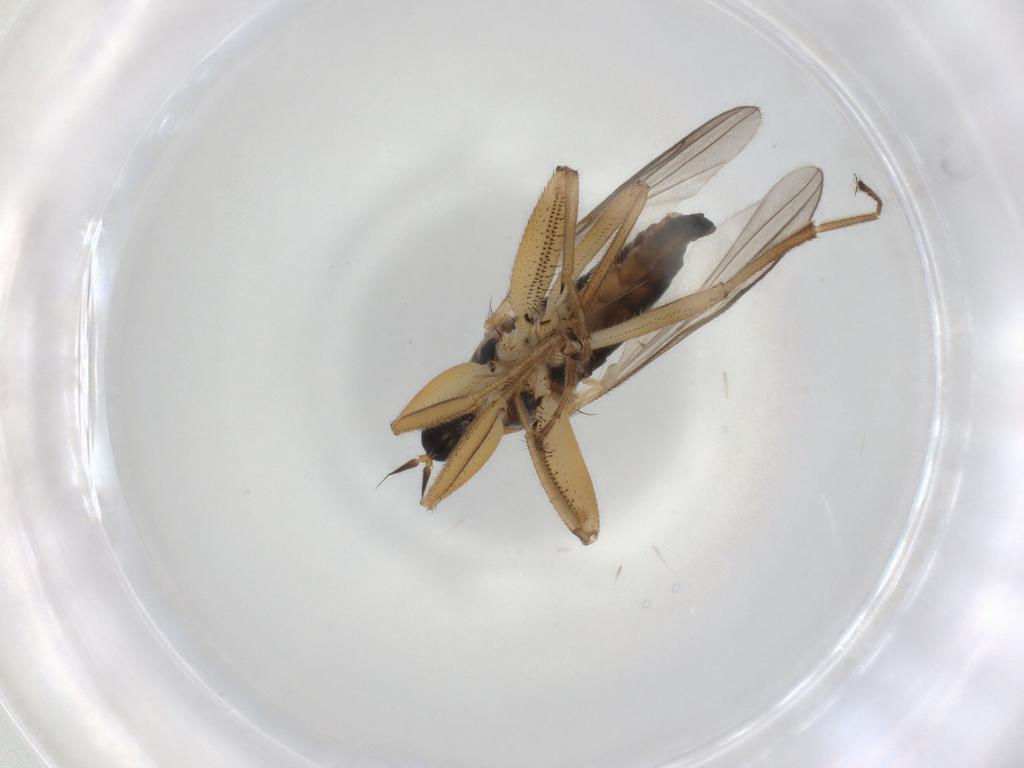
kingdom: Animalia
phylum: Arthropoda
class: Insecta
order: Diptera
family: Hybotidae
